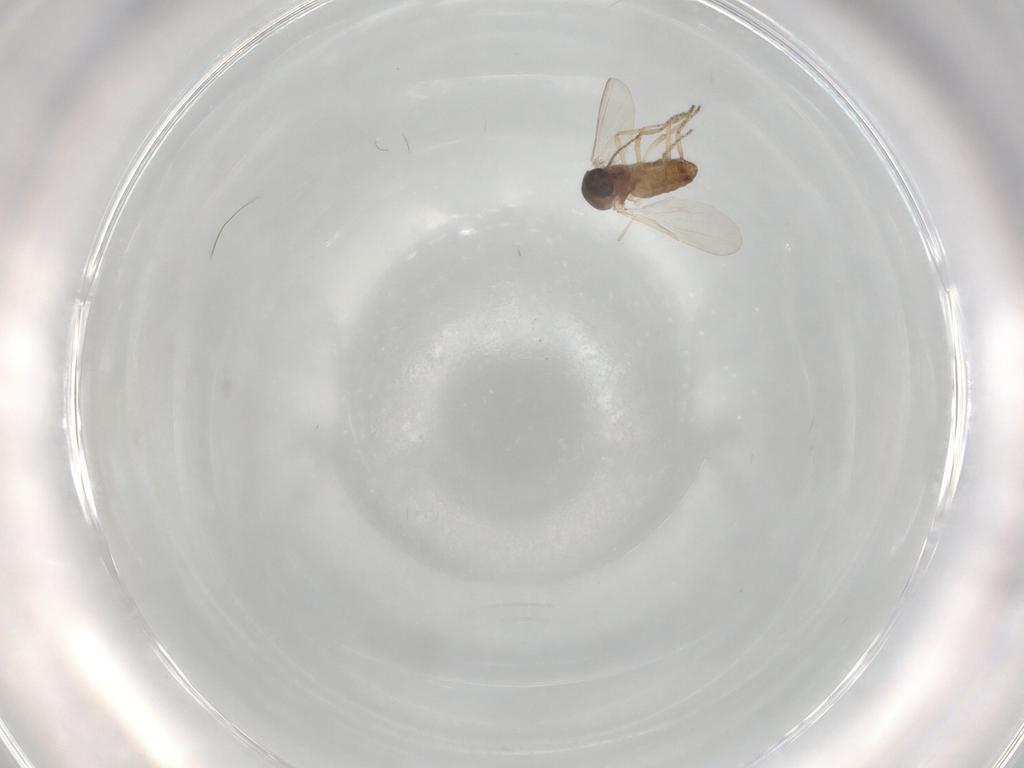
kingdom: Animalia
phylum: Arthropoda
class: Insecta
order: Diptera
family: Ceratopogonidae
